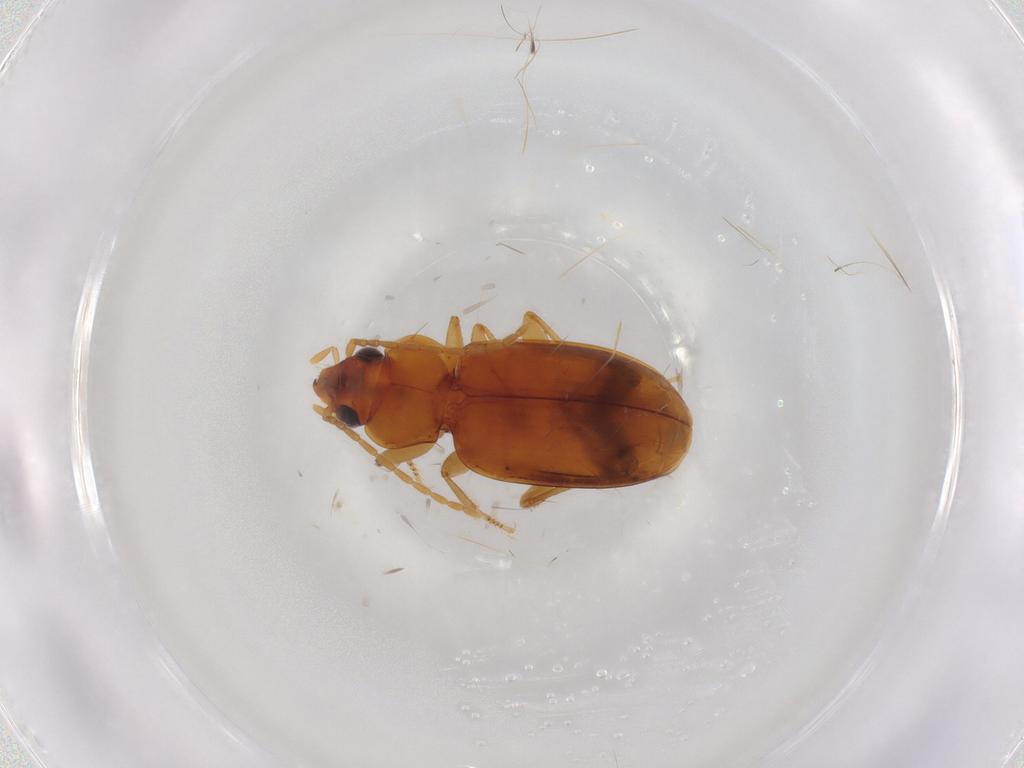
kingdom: Animalia
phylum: Arthropoda
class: Insecta
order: Coleoptera
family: Carabidae
